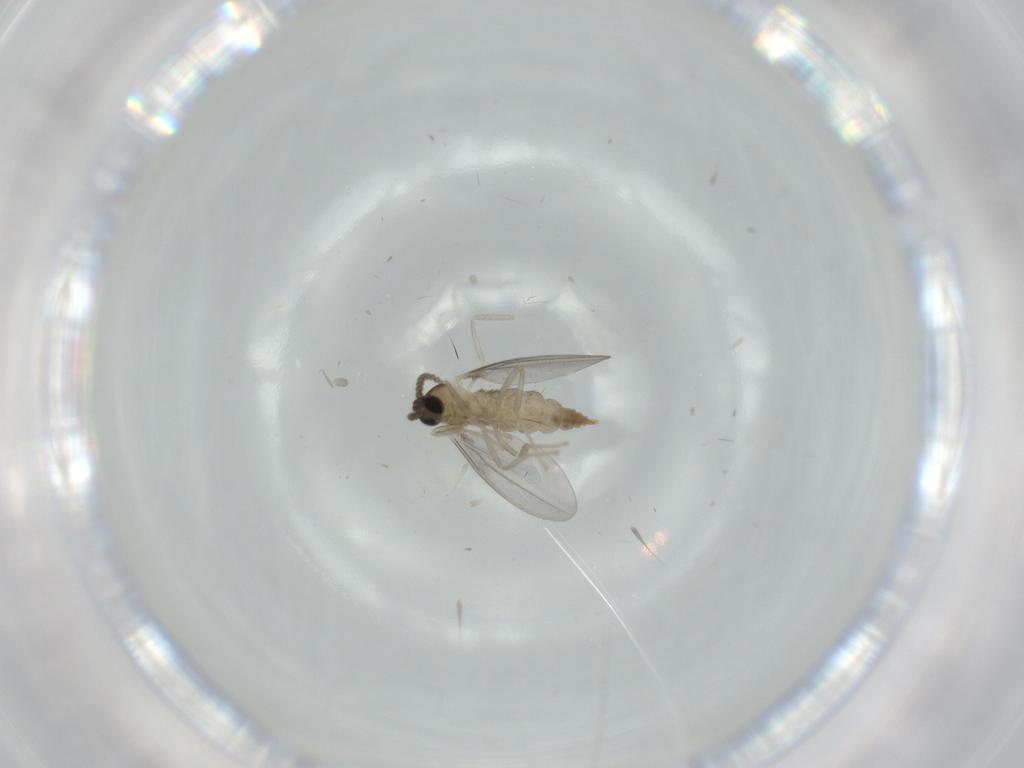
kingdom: Animalia
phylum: Arthropoda
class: Insecta
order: Diptera
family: Cecidomyiidae
